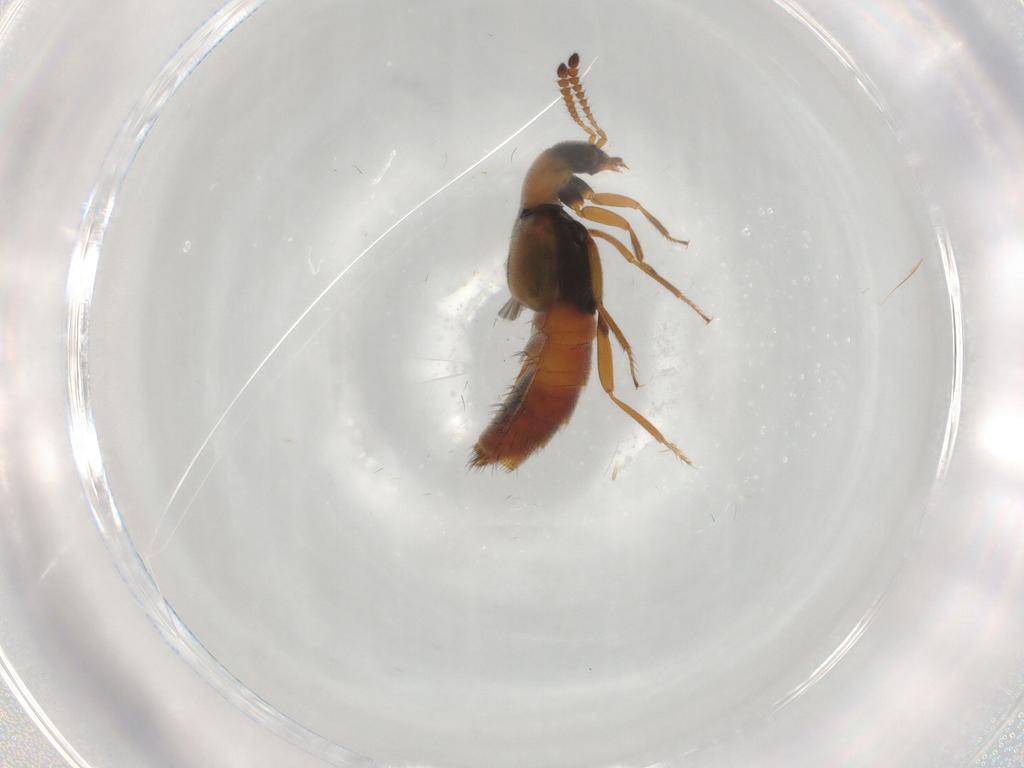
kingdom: Animalia
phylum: Arthropoda
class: Insecta
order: Coleoptera
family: Staphylinidae
